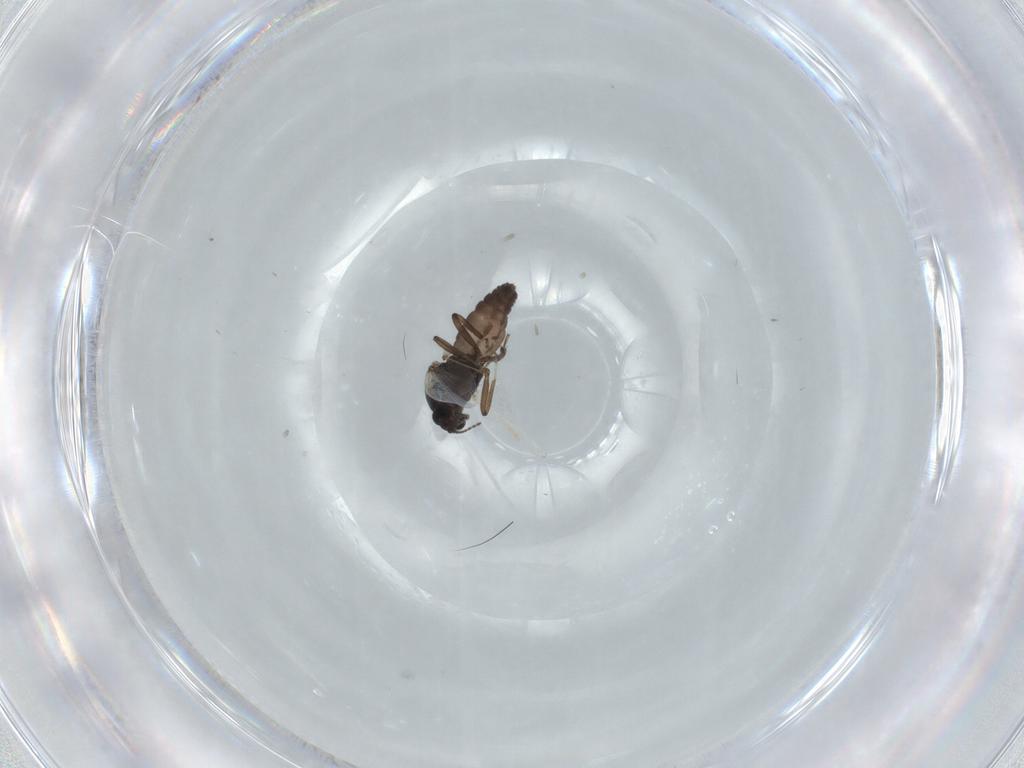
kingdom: Animalia
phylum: Arthropoda
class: Insecta
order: Diptera
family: Ceratopogonidae
